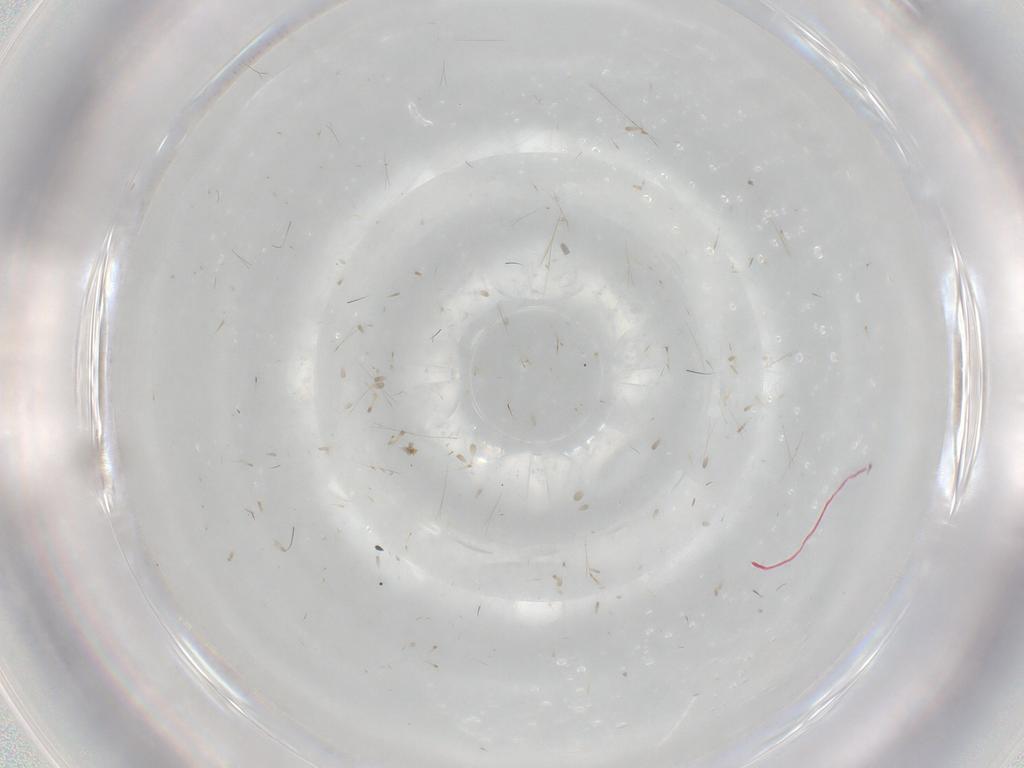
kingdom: Animalia
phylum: Arthropoda
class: Insecta
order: Diptera
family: Cecidomyiidae
